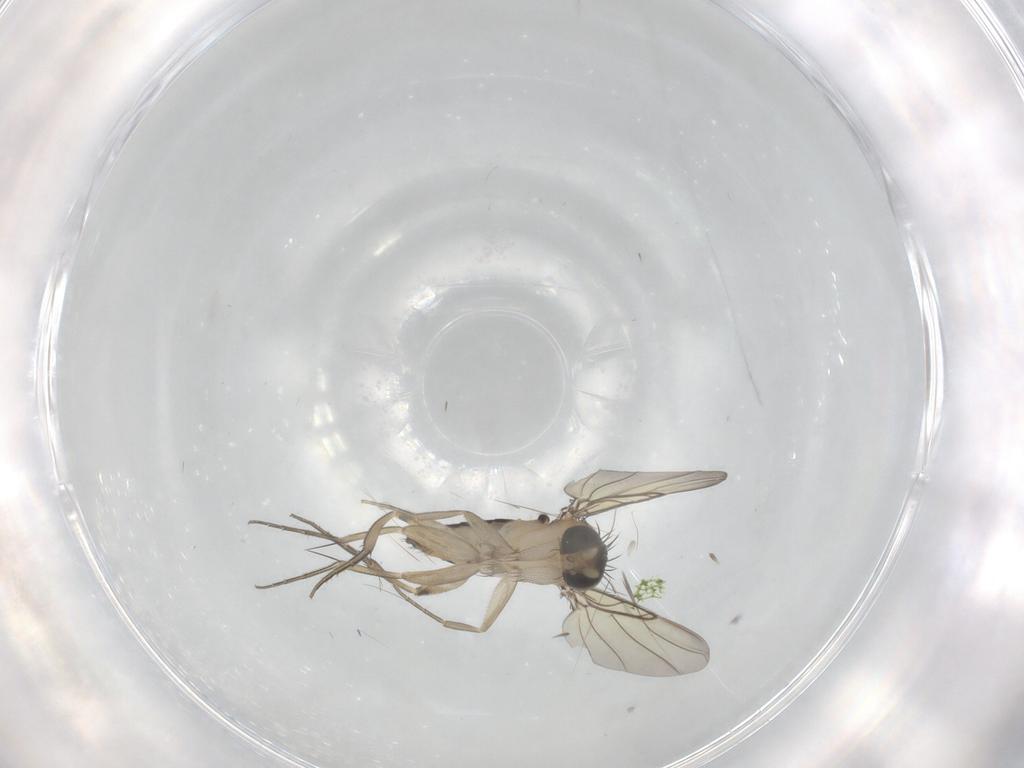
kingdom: Animalia
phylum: Arthropoda
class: Insecta
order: Diptera
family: Phoridae
